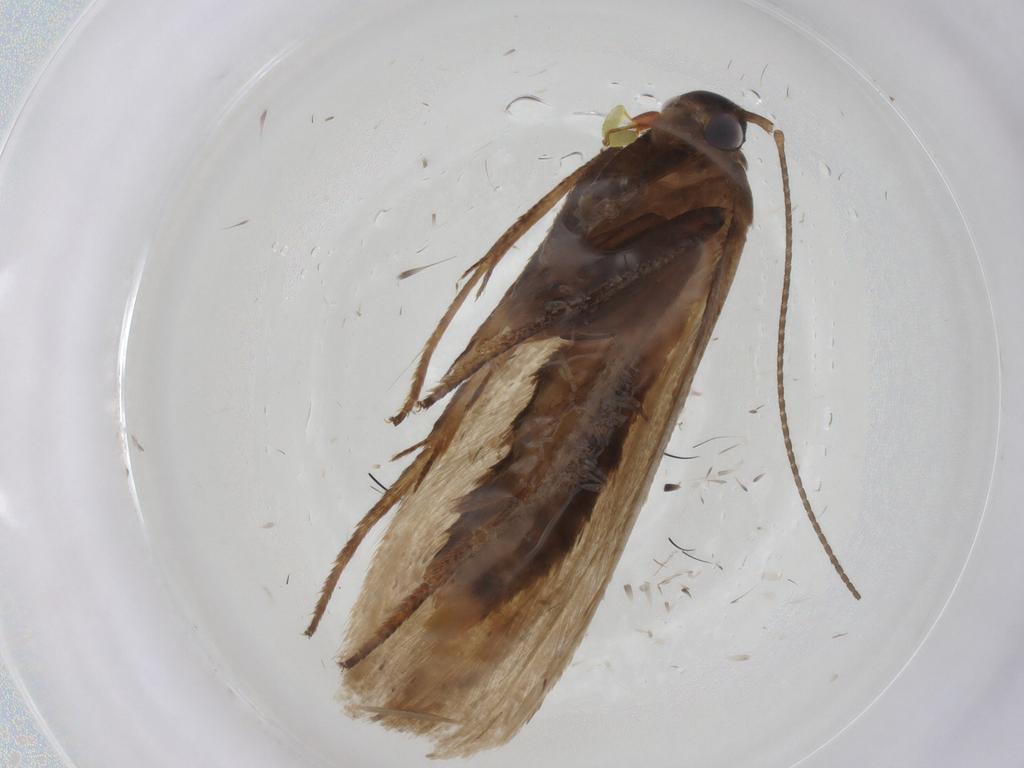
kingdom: Animalia
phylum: Arthropoda
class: Insecta
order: Lepidoptera
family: Blastobasidae
